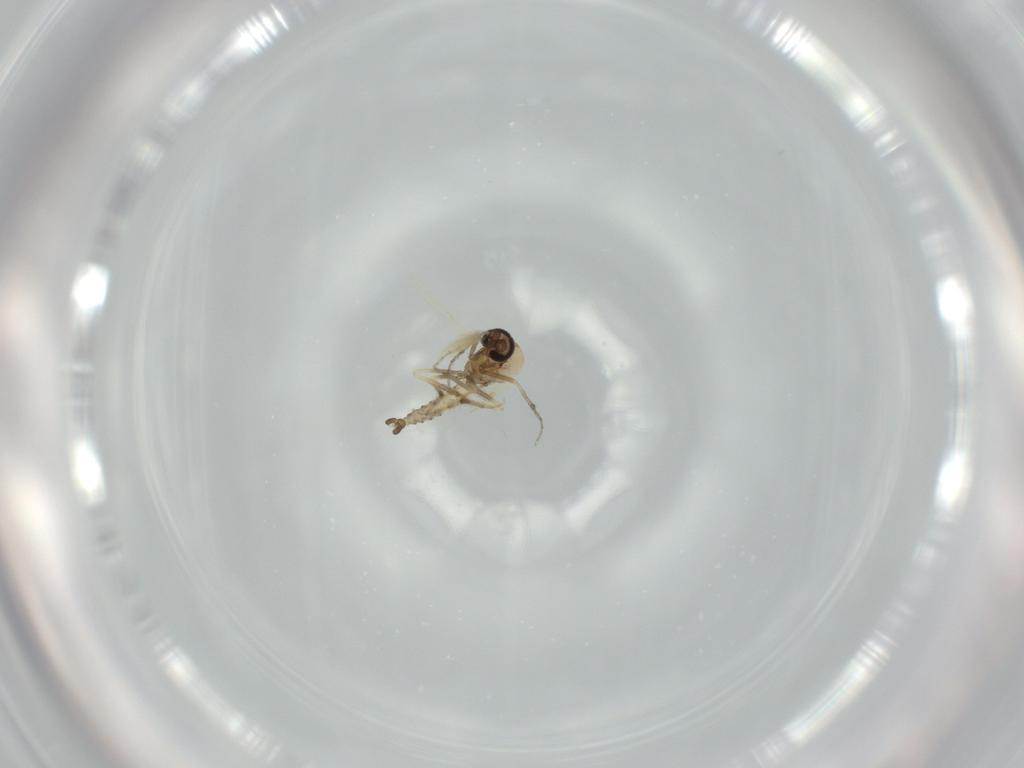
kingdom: Animalia
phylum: Arthropoda
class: Insecta
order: Diptera
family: Ceratopogonidae
